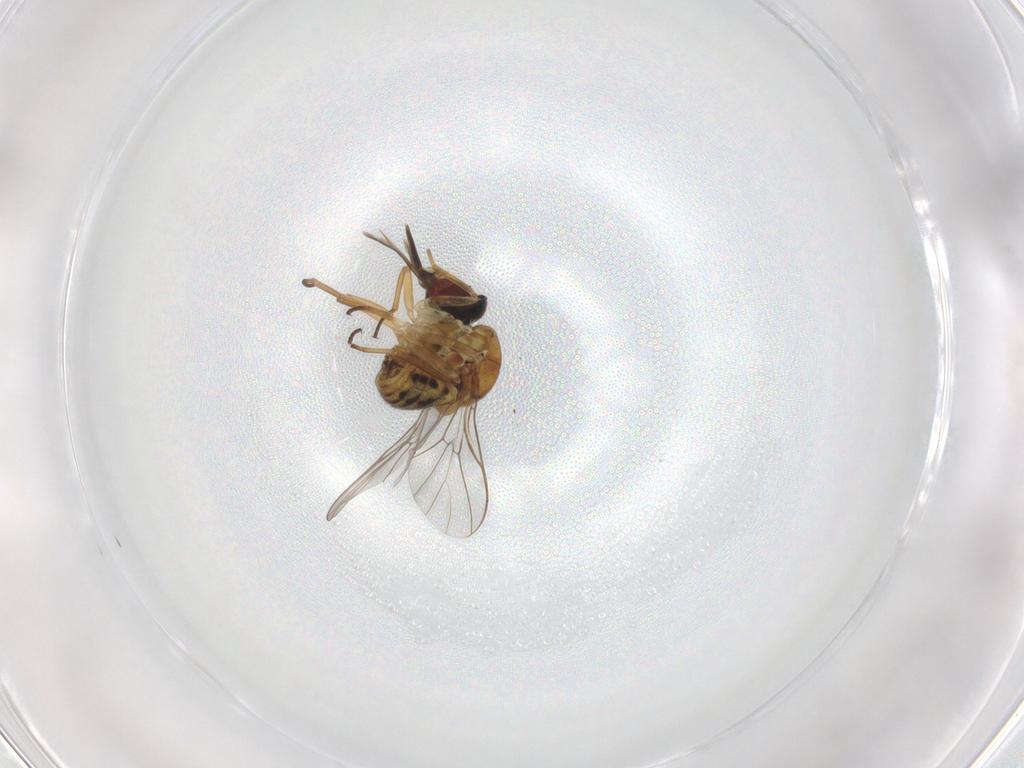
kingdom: Animalia
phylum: Arthropoda
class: Insecta
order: Diptera
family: Bombyliidae
